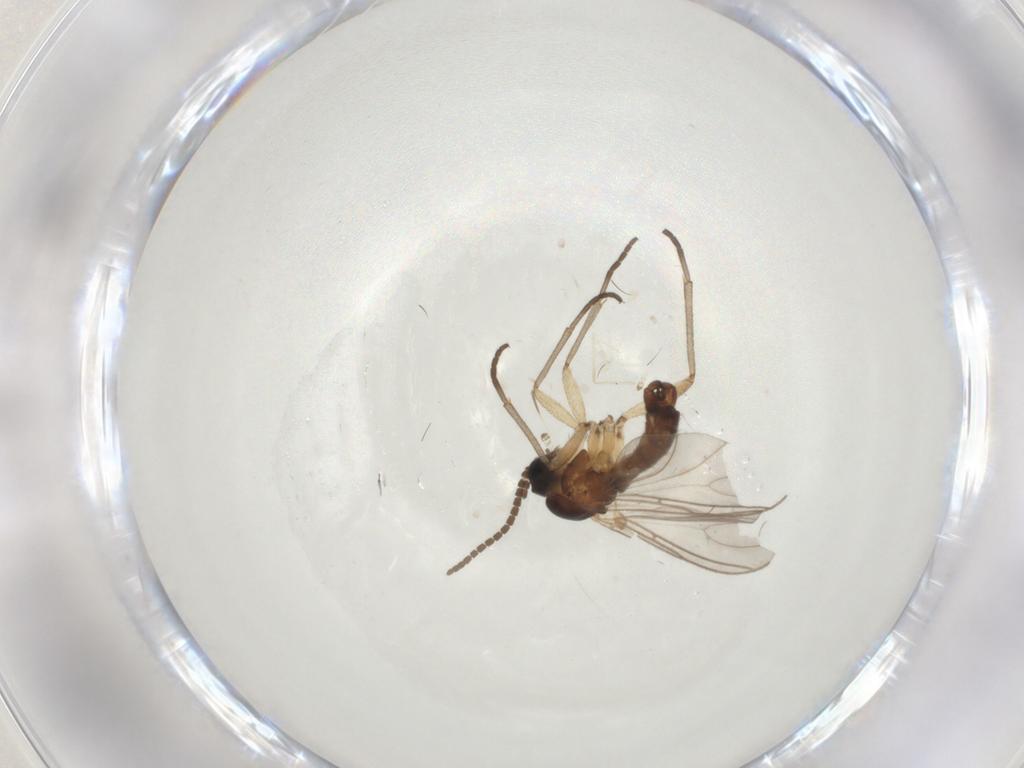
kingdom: Animalia
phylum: Arthropoda
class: Insecta
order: Diptera
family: Sciaridae
